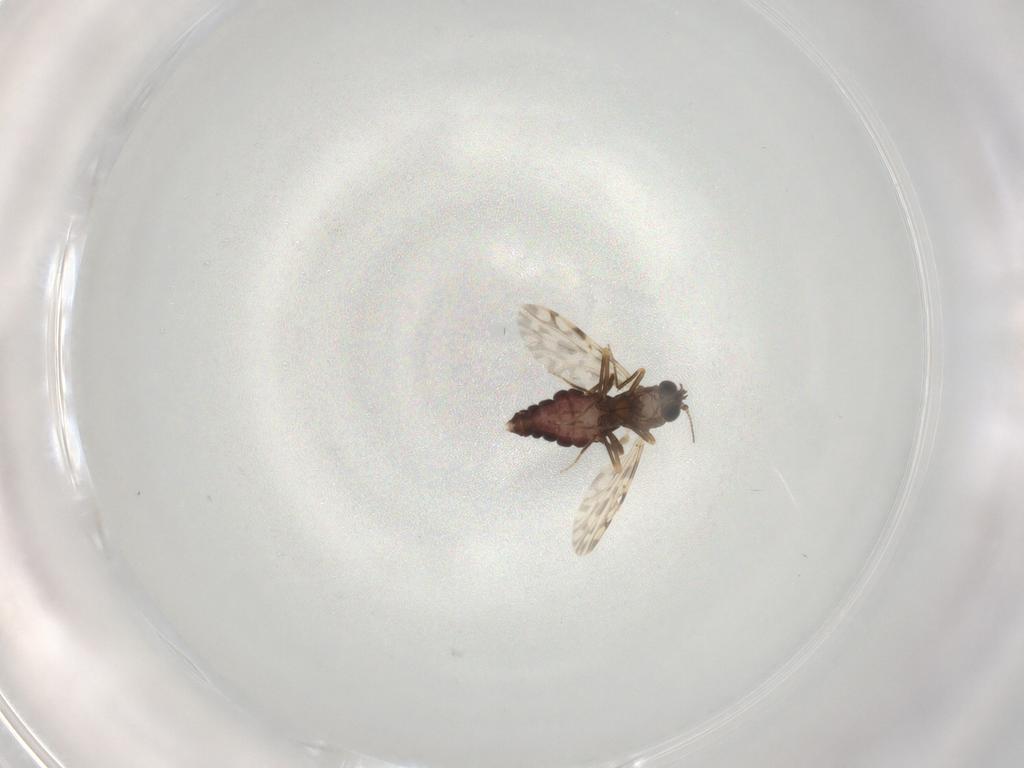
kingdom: Animalia
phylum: Arthropoda
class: Insecta
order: Diptera
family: Ceratopogonidae
